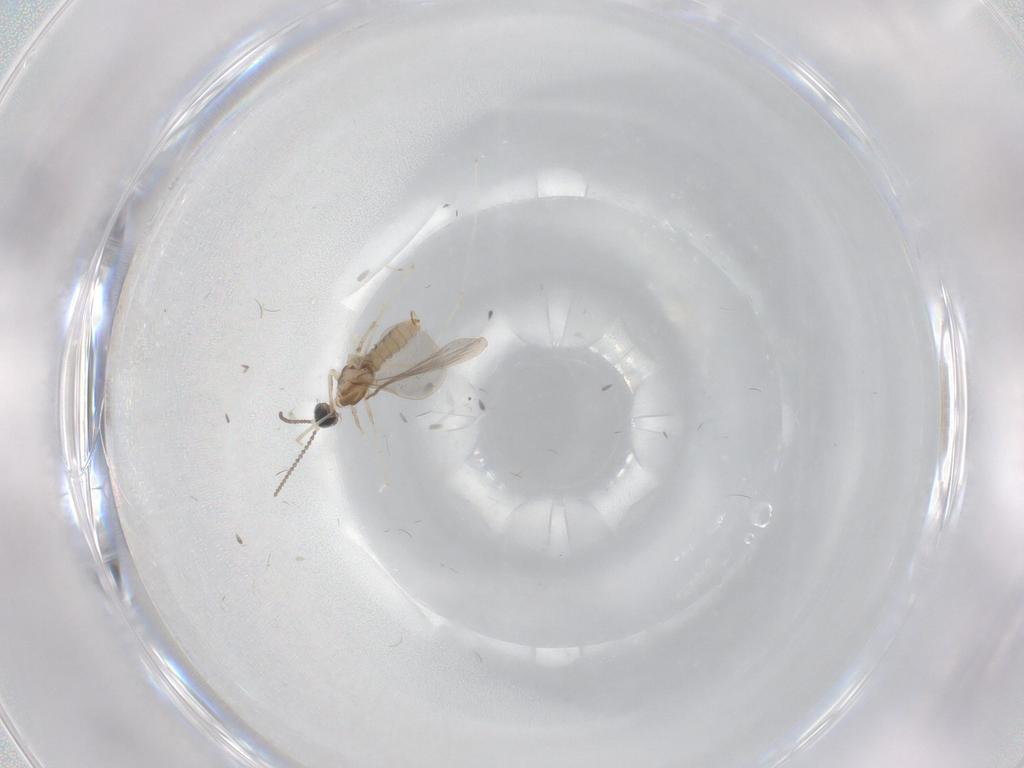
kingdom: Animalia
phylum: Arthropoda
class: Insecta
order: Diptera
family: Cecidomyiidae
